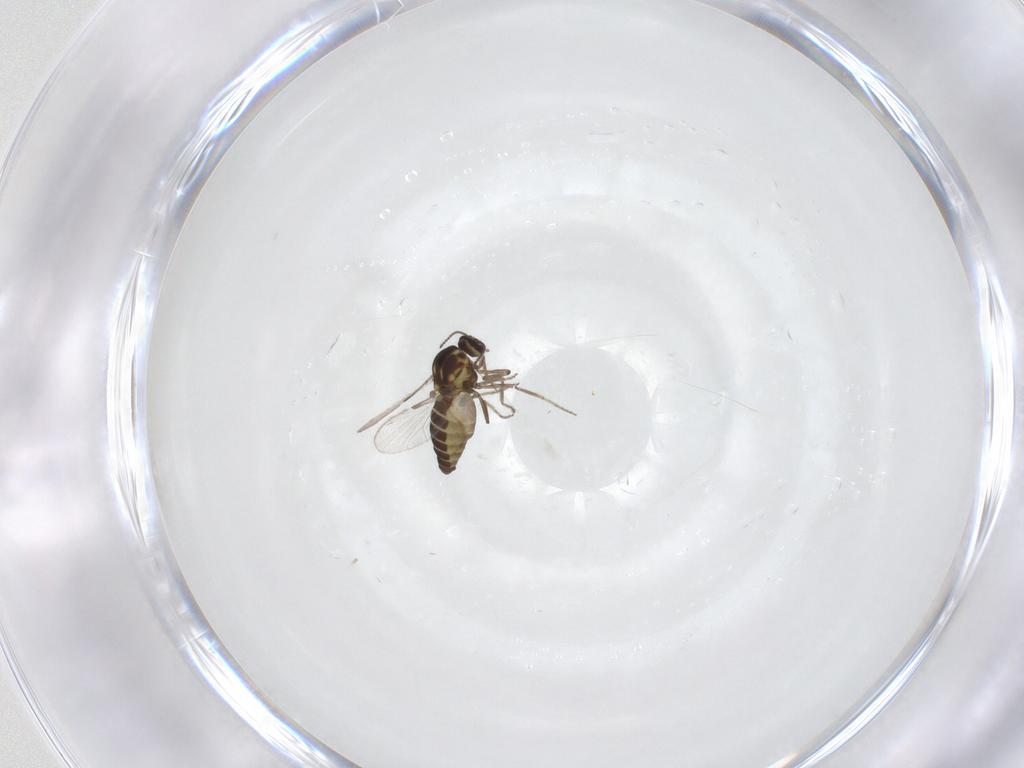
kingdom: Animalia
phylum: Arthropoda
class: Insecta
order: Diptera
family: Ceratopogonidae
